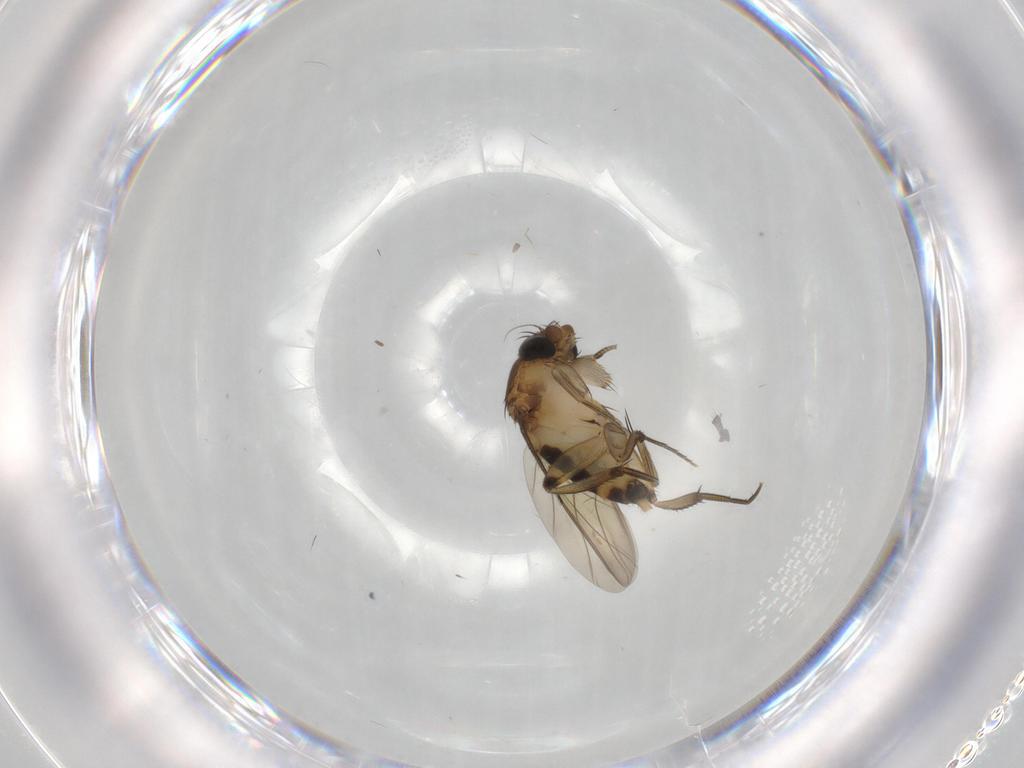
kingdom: Animalia
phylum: Arthropoda
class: Insecta
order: Diptera
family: Phoridae
